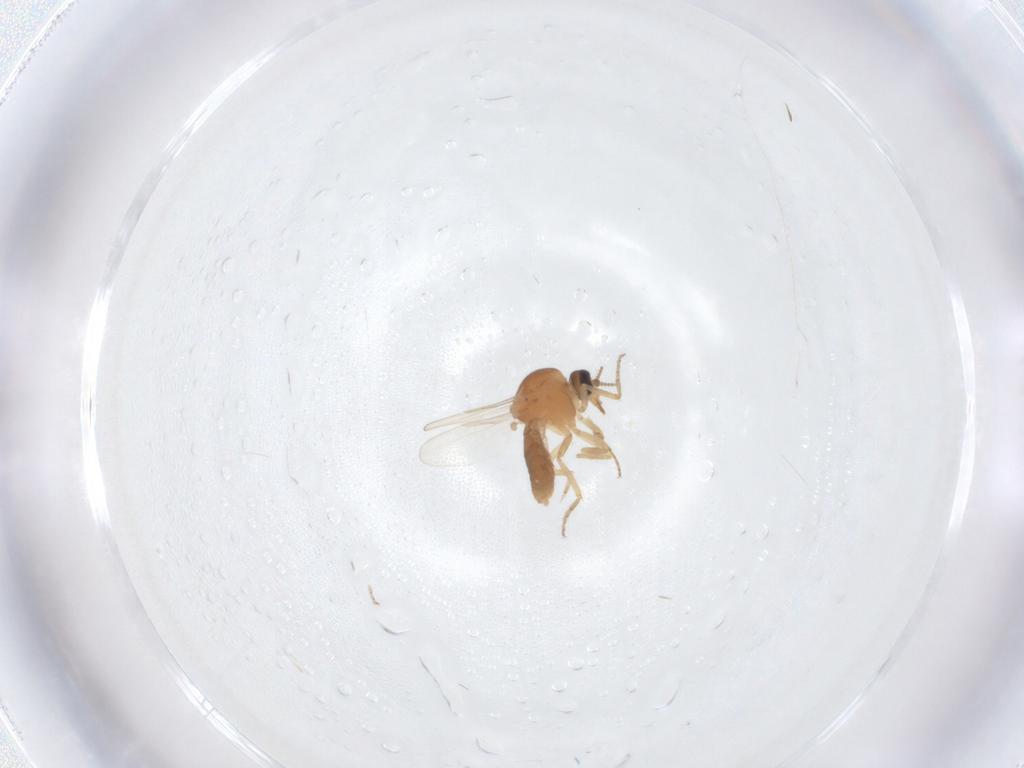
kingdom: Animalia
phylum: Arthropoda
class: Insecta
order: Diptera
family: Ceratopogonidae
